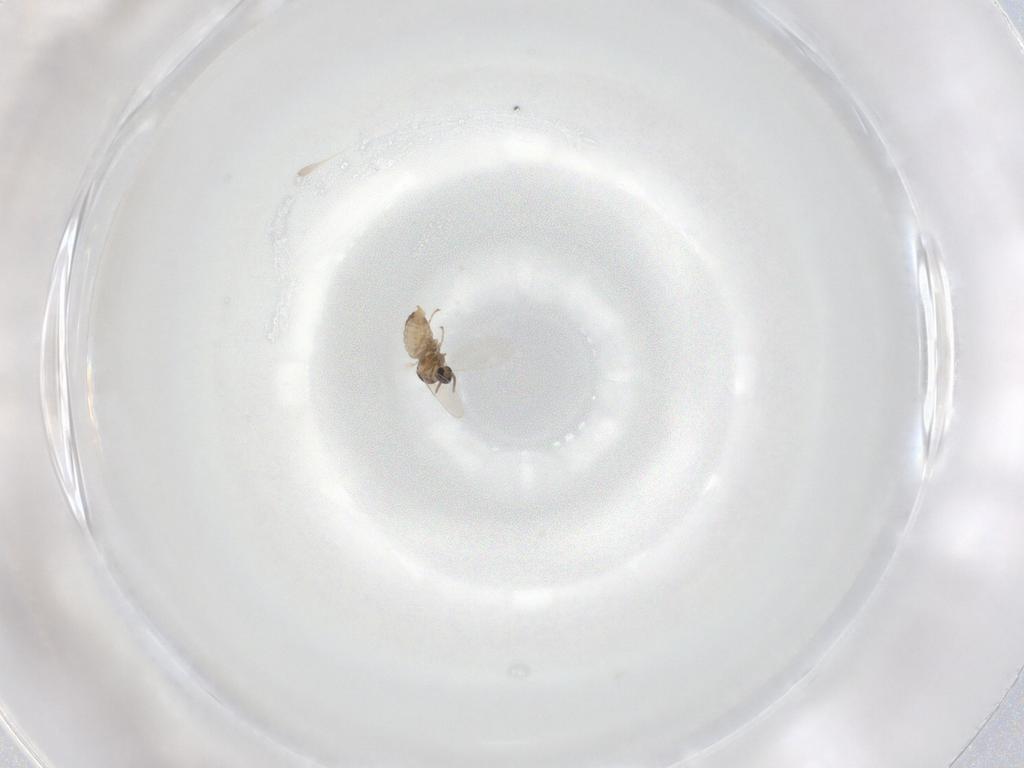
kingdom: Animalia
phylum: Arthropoda
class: Insecta
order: Diptera
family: Cecidomyiidae
